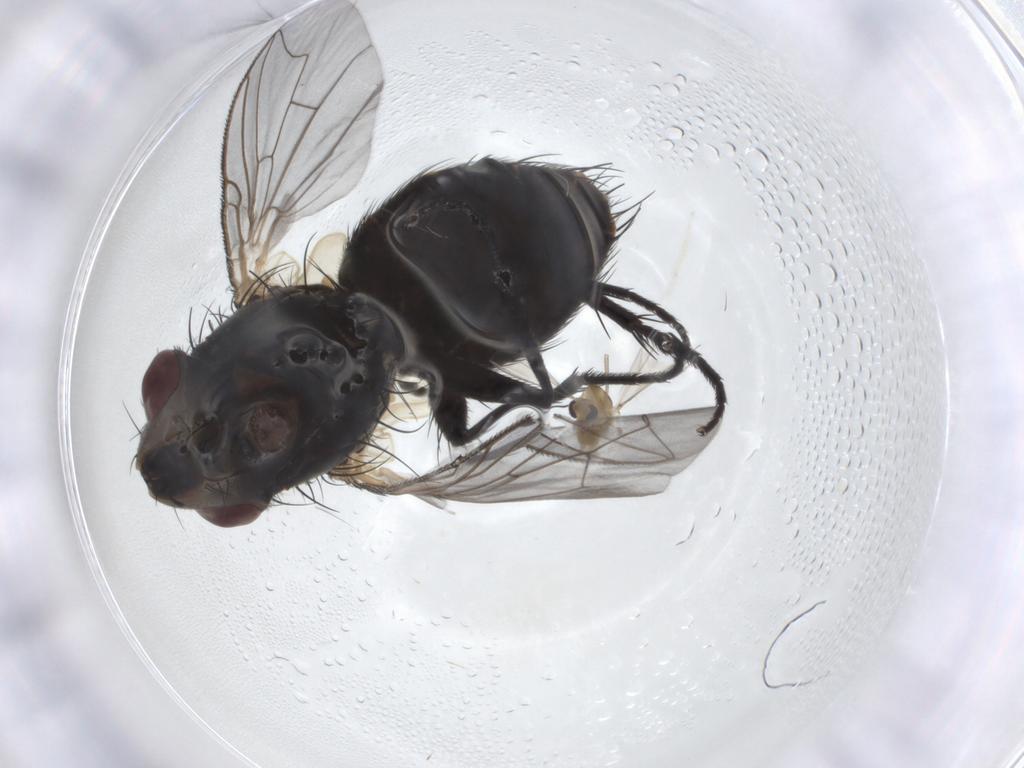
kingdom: Animalia
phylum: Arthropoda
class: Insecta
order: Diptera
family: Sarcophagidae
